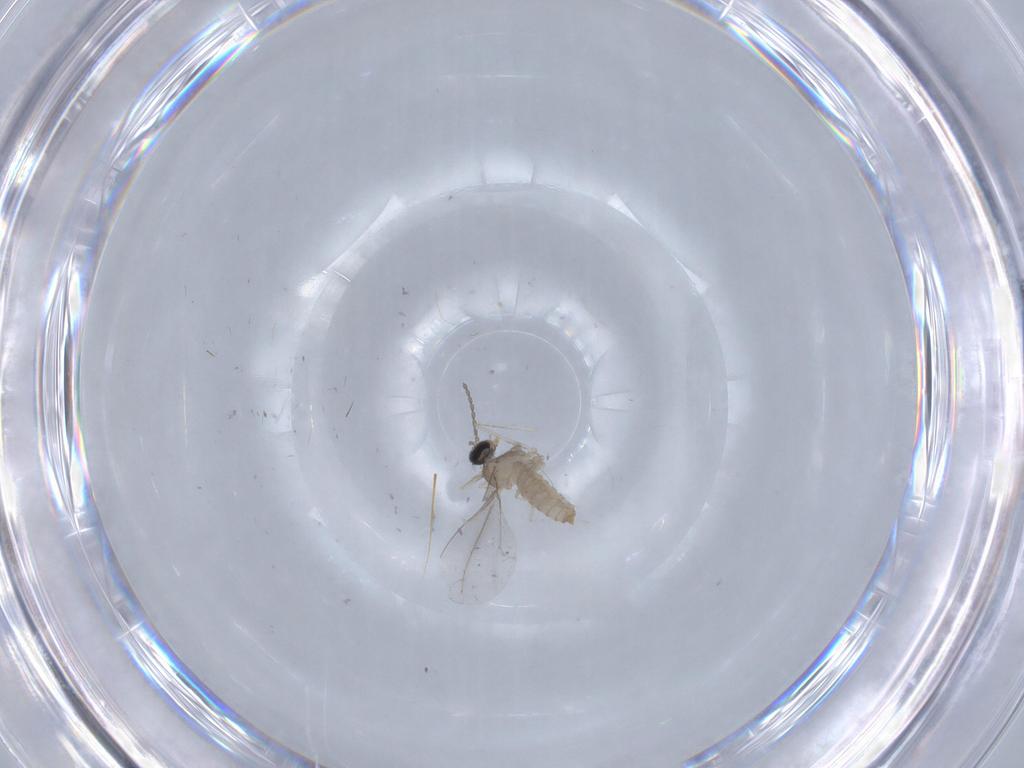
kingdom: Animalia
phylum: Arthropoda
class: Insecta
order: Diptera
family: Cecidomyiidae
